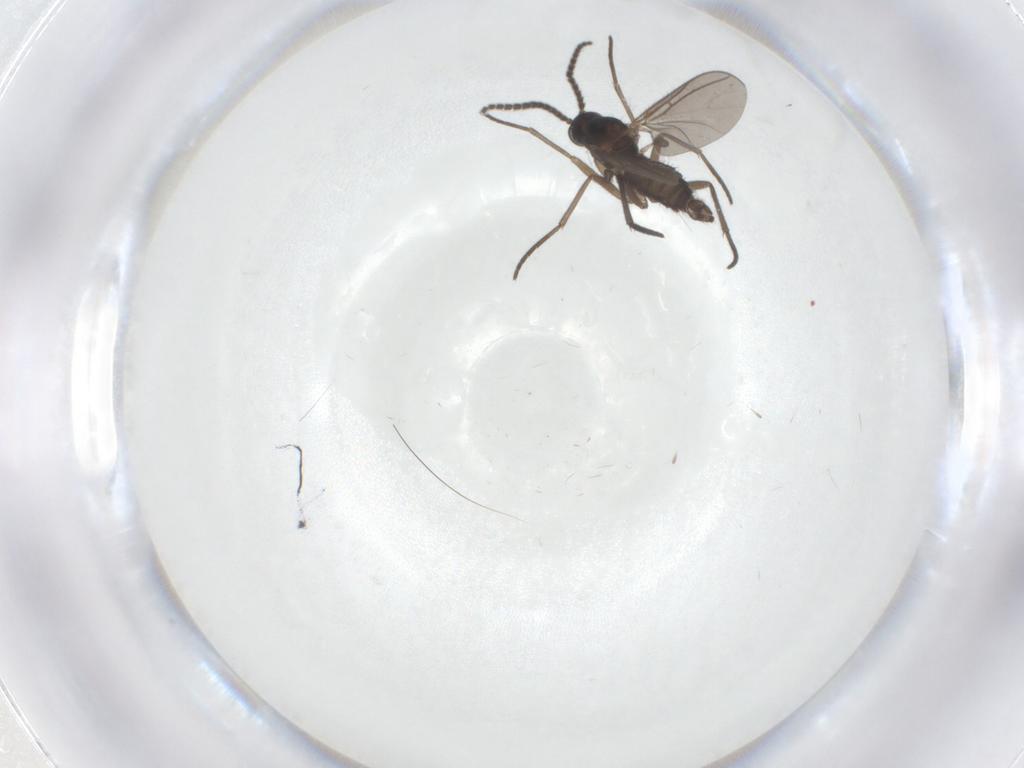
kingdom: Animalia
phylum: Arthropoda
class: Insecta
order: Diptera
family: Sciaridae
